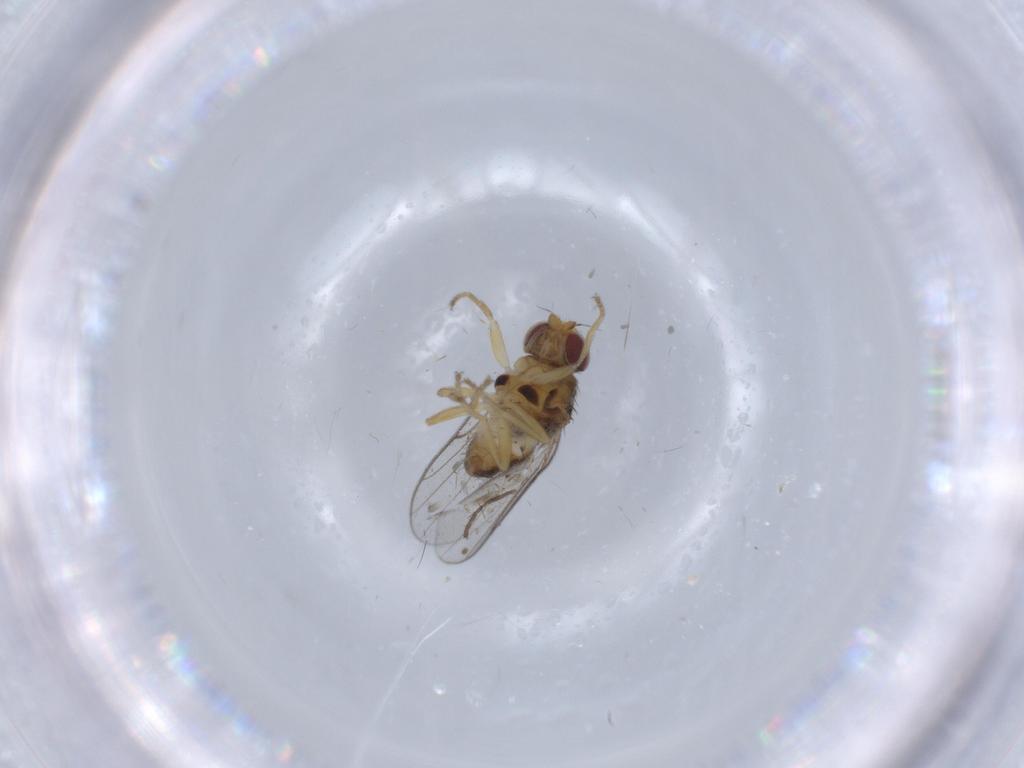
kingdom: Animalia
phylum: Arthropoda
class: Insecta
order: Diptera
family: Chloropidae
